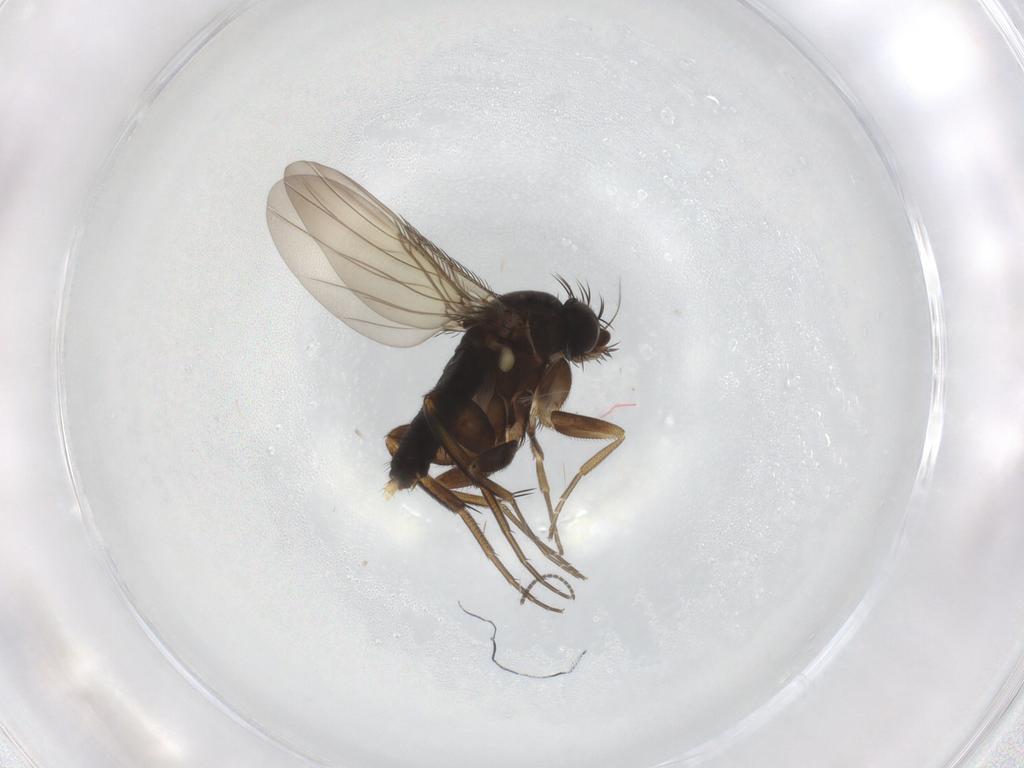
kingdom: Animalia
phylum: Arthropoda
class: Insecta
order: Diptera
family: Phoridae
